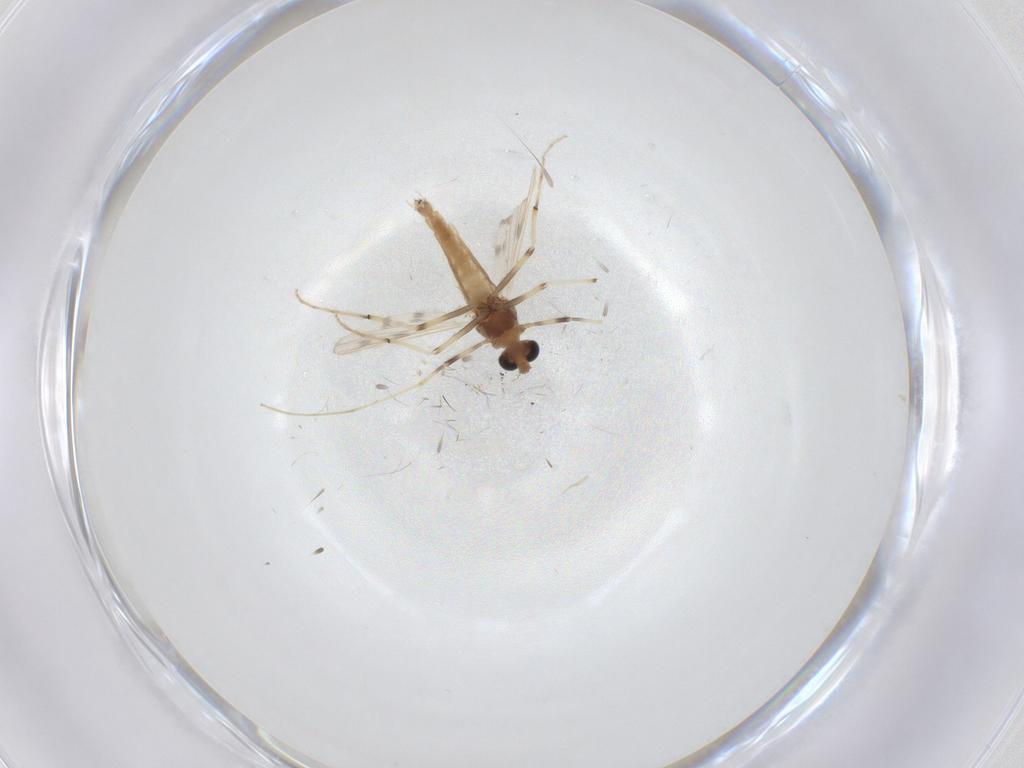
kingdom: Animalia
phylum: Arthropoda
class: Insecta
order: Diptera
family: Chironomidae
